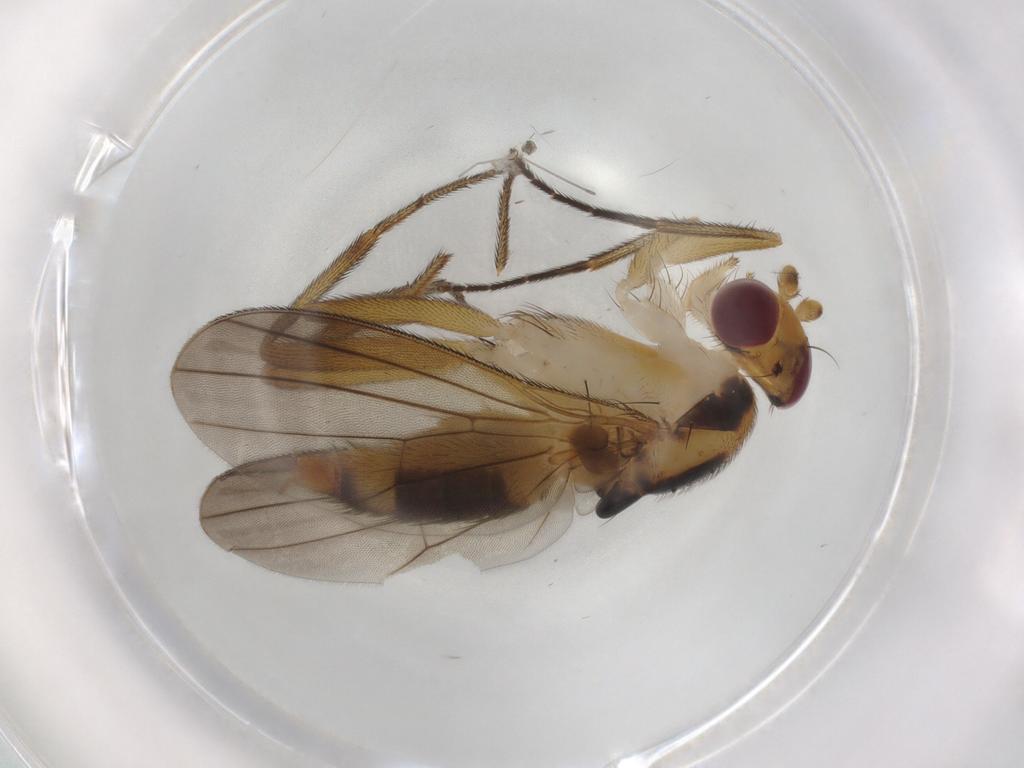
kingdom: Animalia
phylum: Arthropoda
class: Insecta
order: Diptera
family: Clusiidae
